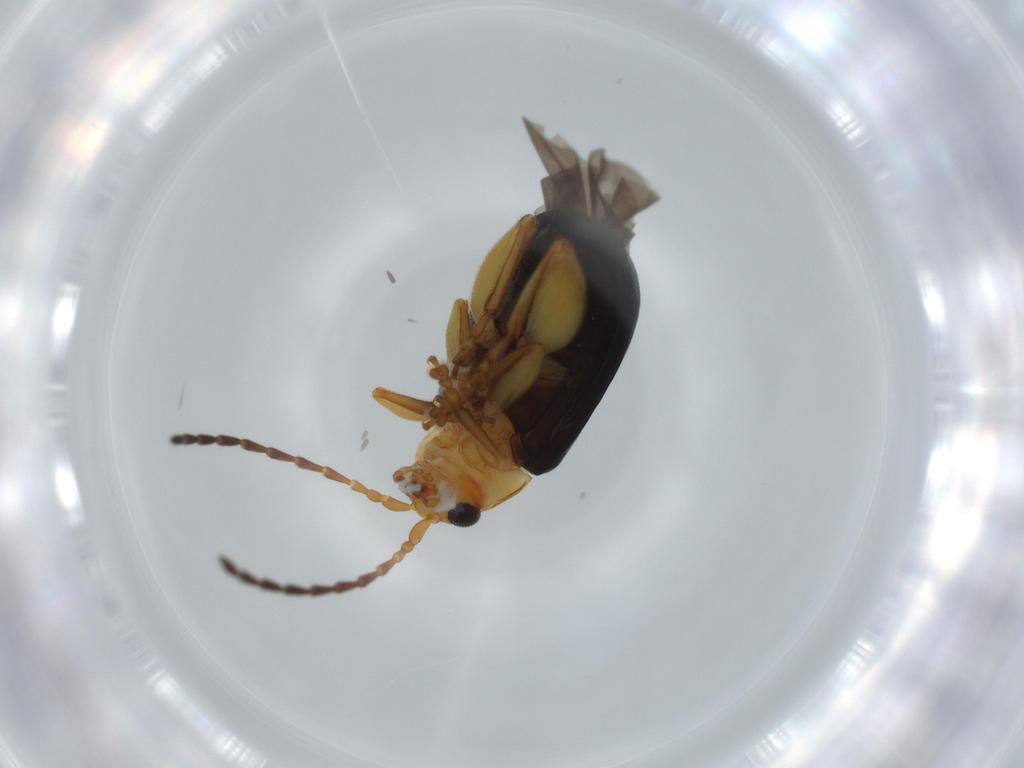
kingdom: Animalia
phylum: Arthropoda
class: Insecta
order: Coleoptera
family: Chrysomelidae
